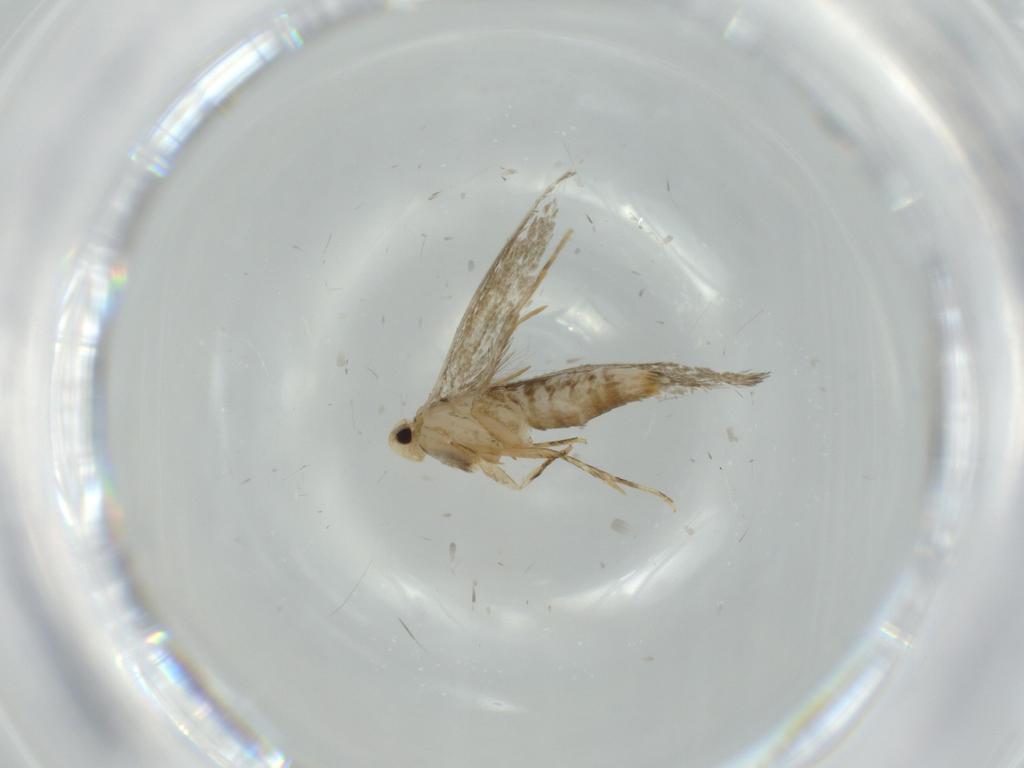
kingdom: Animalia
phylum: Arthropoda
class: Insecta
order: Lepidoptera
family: Tineidae
